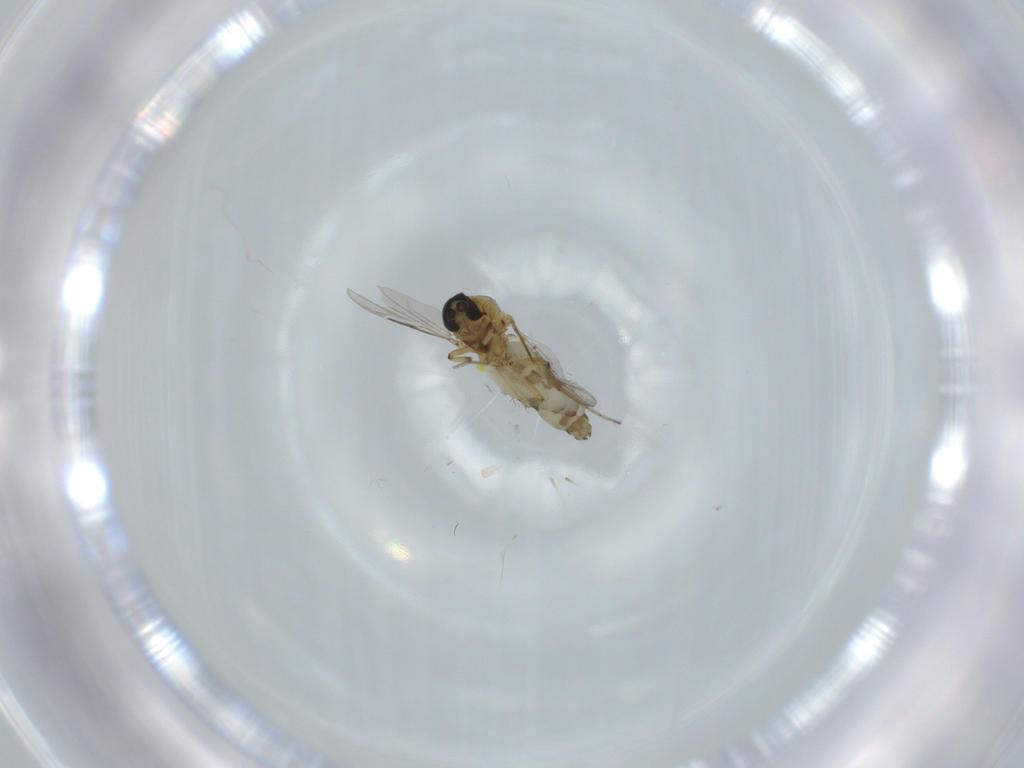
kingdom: Animalia
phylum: Arthropoda
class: Insecta
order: Diptera
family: Ceratopogonidae
